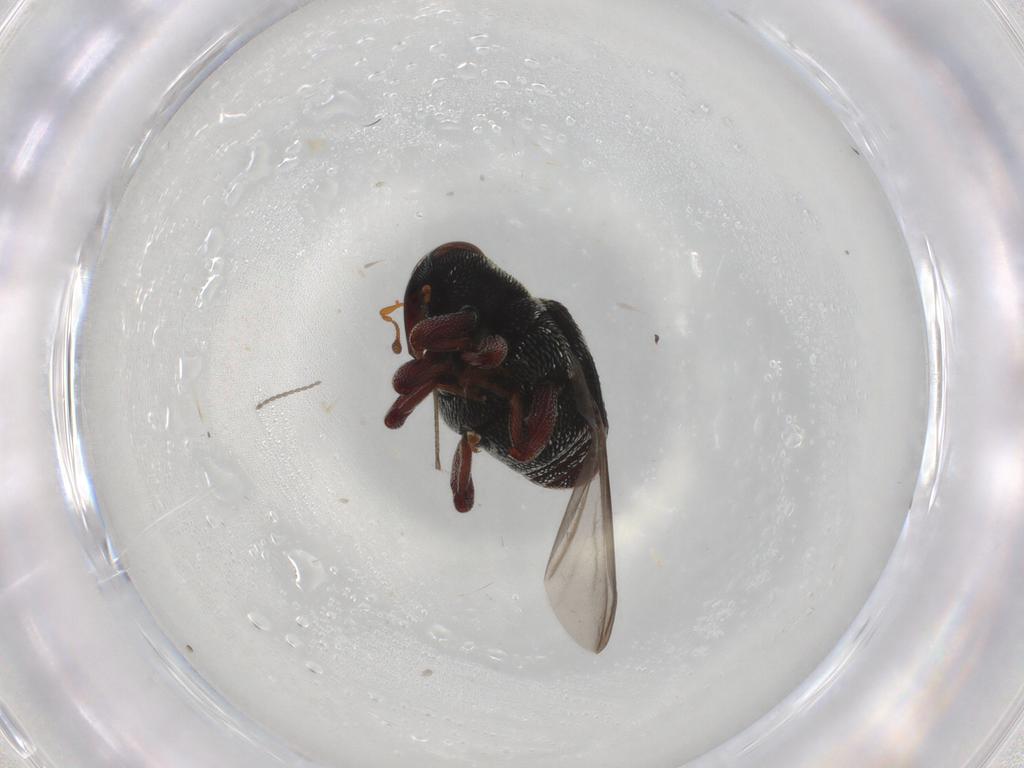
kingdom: Animalia
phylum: Arthropoda
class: Insecta
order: Coleoptera
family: Curculionidae
